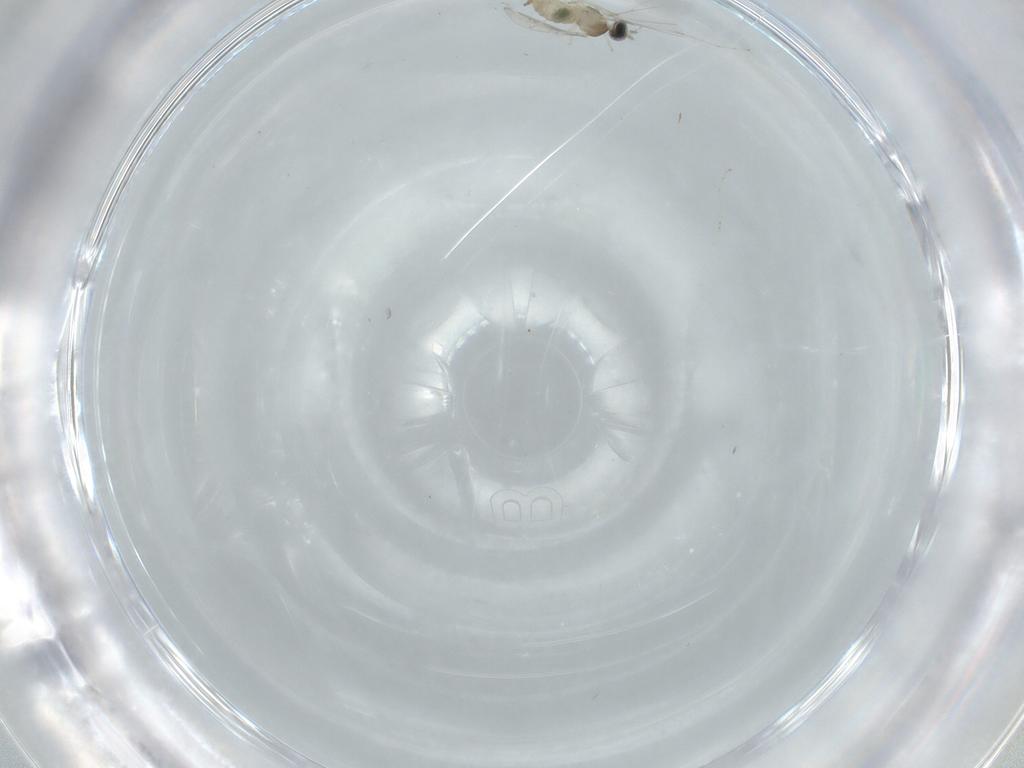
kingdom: Animalia
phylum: Arthropoda
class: Insecta
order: Diptera
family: Cecidomyiidae
